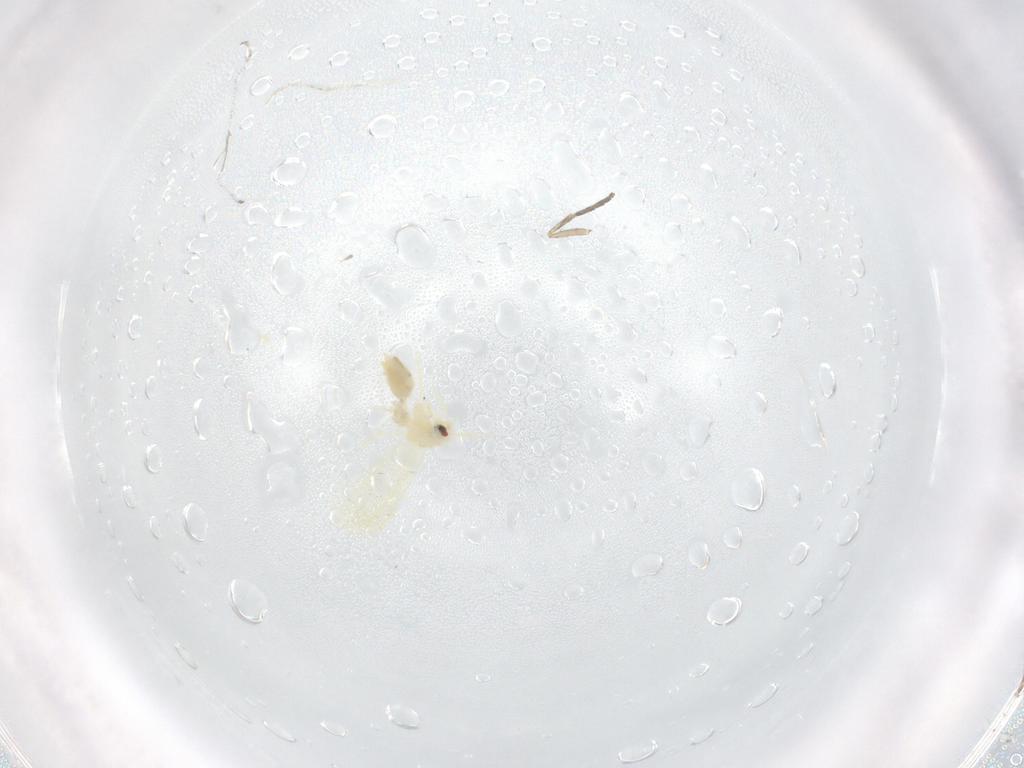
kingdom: Animalia
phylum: Arthropoda
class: Insecta
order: Hemiptera
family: Aleyrodidae
